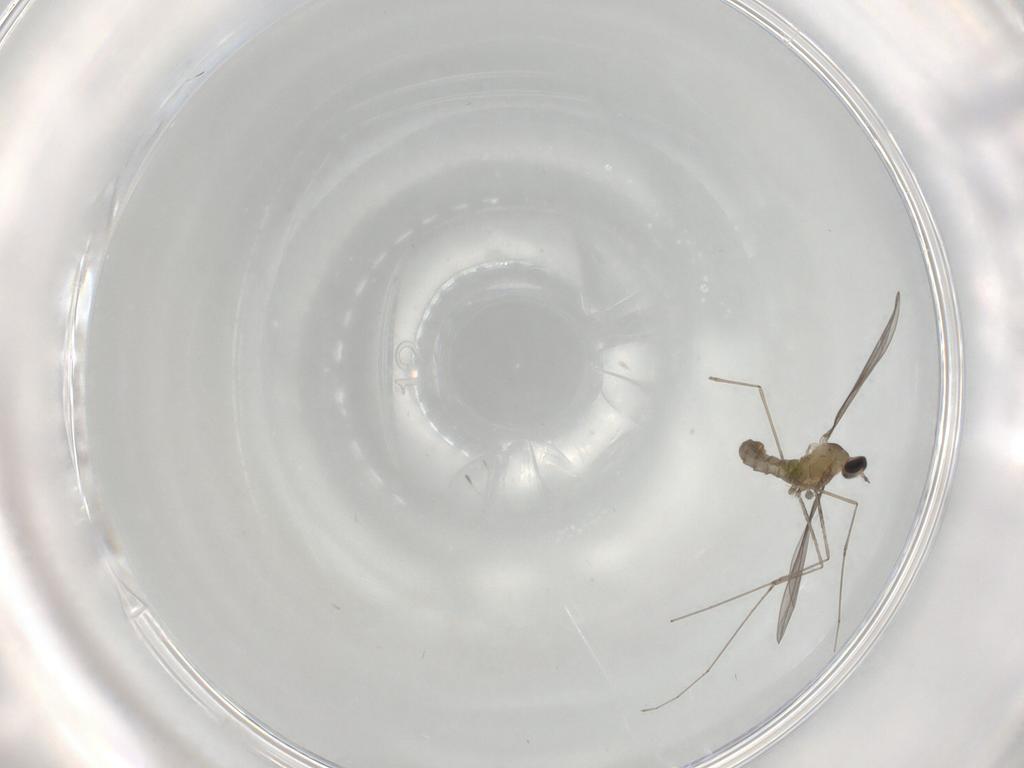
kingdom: Animalia
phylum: Arthropoda
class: Insecta
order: Diptera
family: Cecidomyiidae
